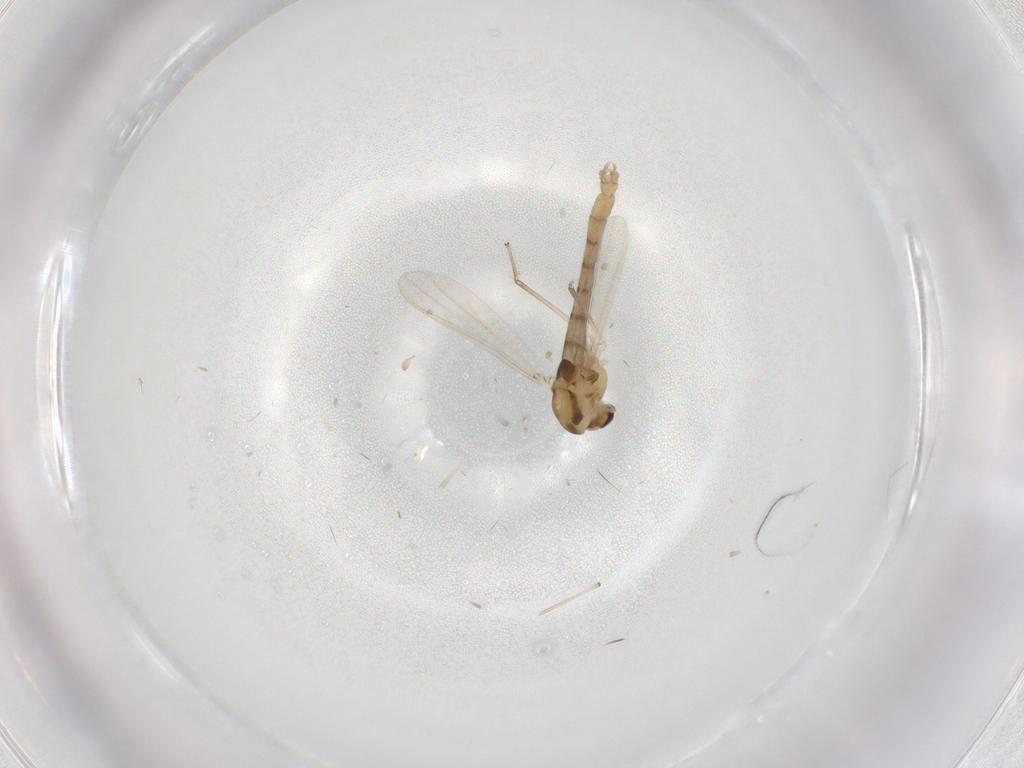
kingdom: Animalia
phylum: Arthropoda
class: Insecta
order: Diptera
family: Chironomidae
